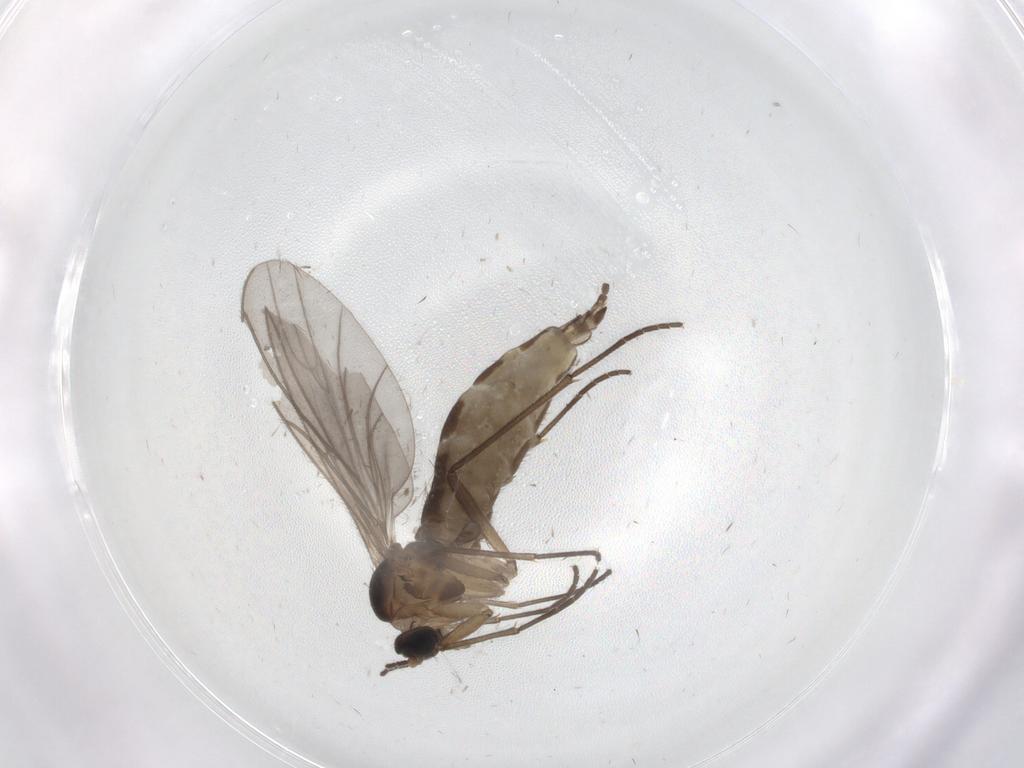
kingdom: Animalia
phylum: Arthropoda
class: Insecta
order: Diptera
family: Cecidomyiidae
